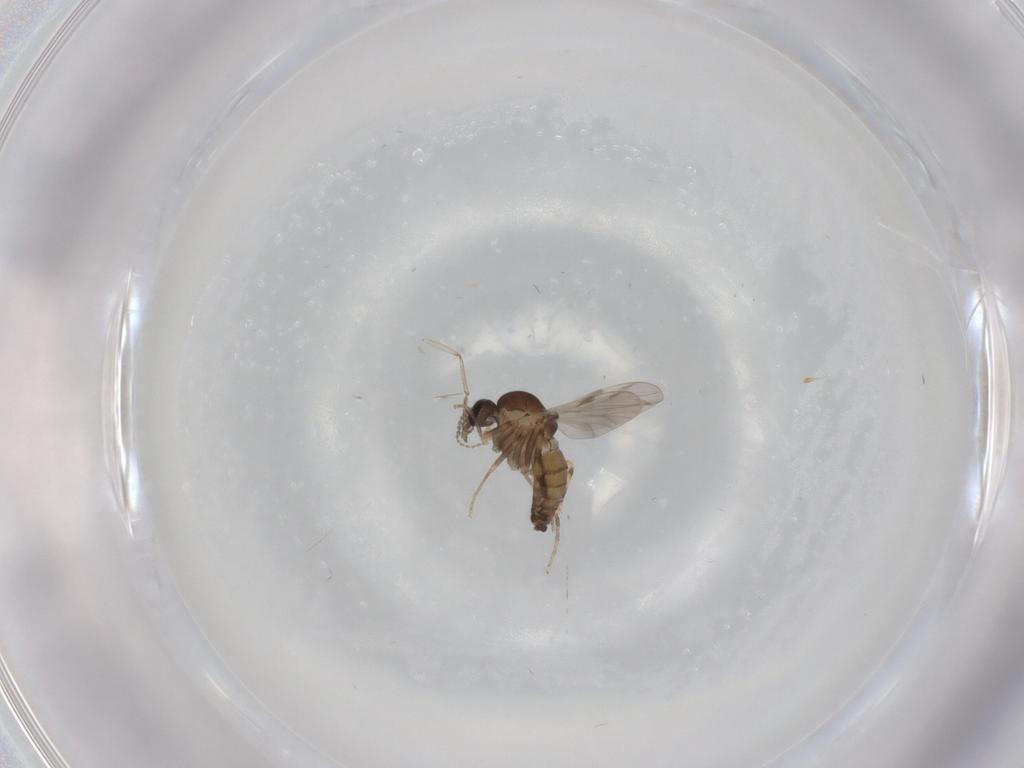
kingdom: Animalia
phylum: Arthropoda
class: Insecta
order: Diptera
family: Ceratopogonidae
